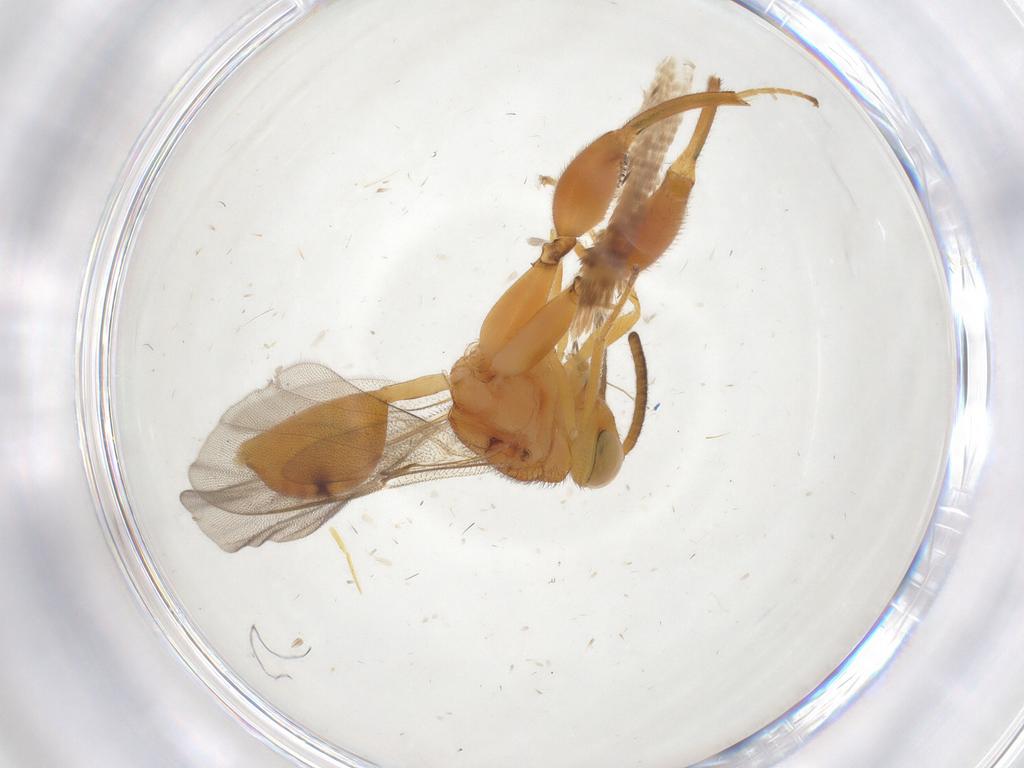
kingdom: Animalia
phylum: Arthropoda
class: Insecta
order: Hymenoptera
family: Chalcididae
